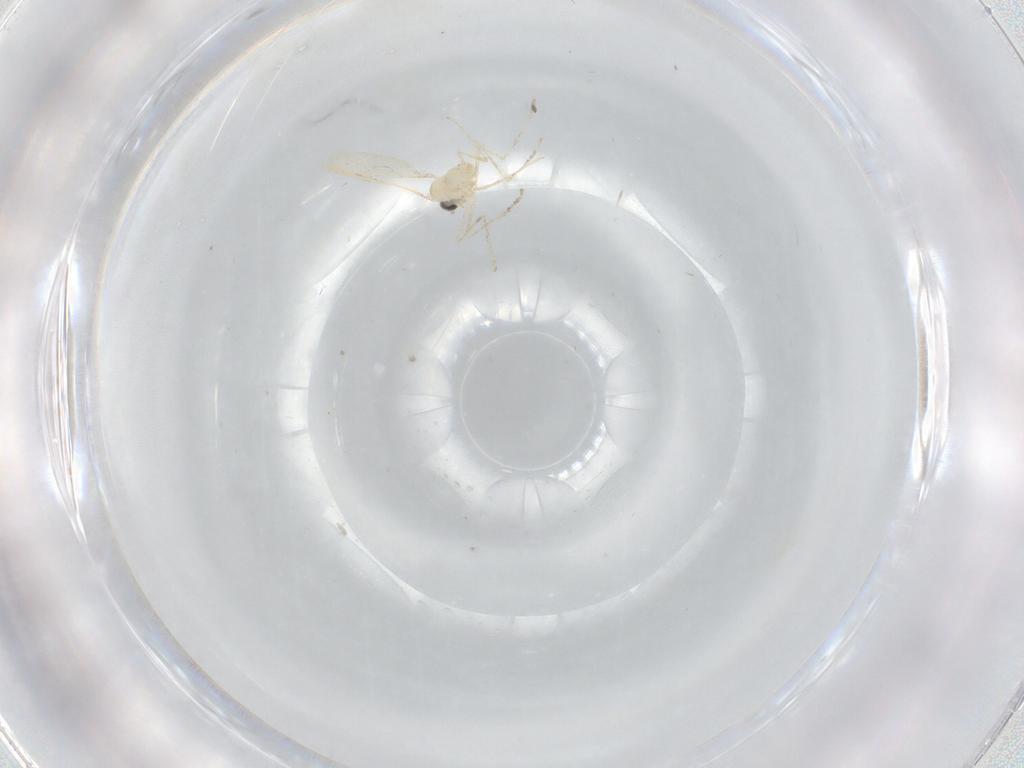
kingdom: Animalia
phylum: Arthropoda
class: Insecta
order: Diptera
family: Cecidomyiidae
